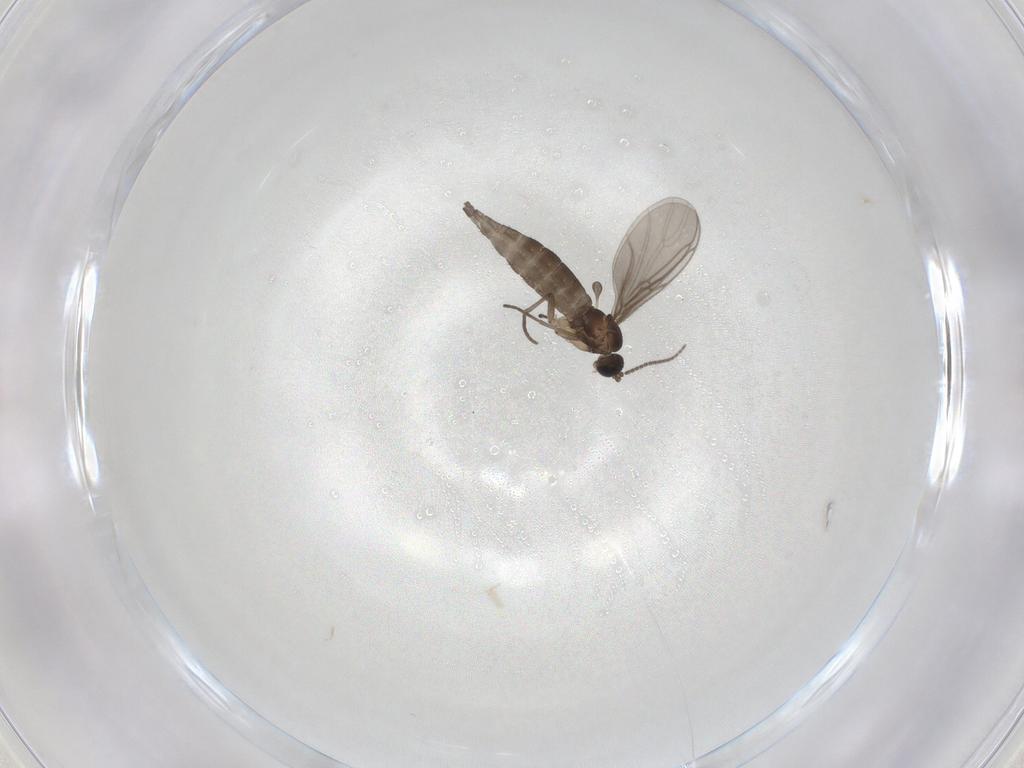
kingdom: Animalia
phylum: Arthropoda
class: Insecta
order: Diptera
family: Sciaridae
